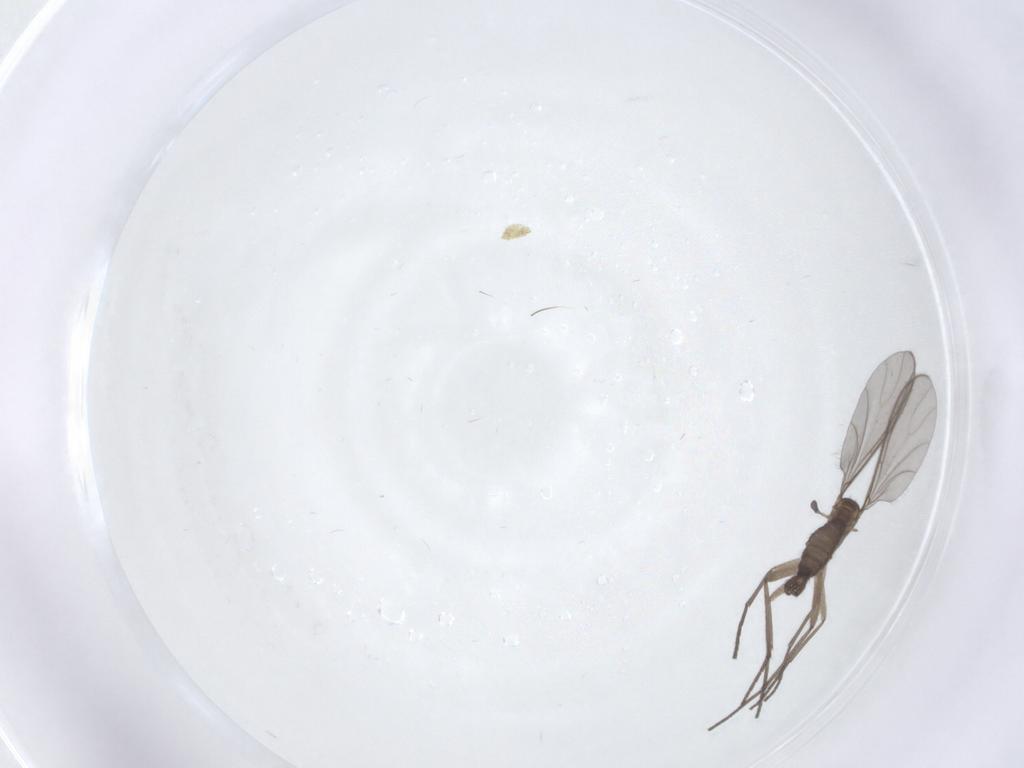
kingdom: Animalia
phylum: Arthropoda
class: Insecta
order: Diptera
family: Sciaridae
